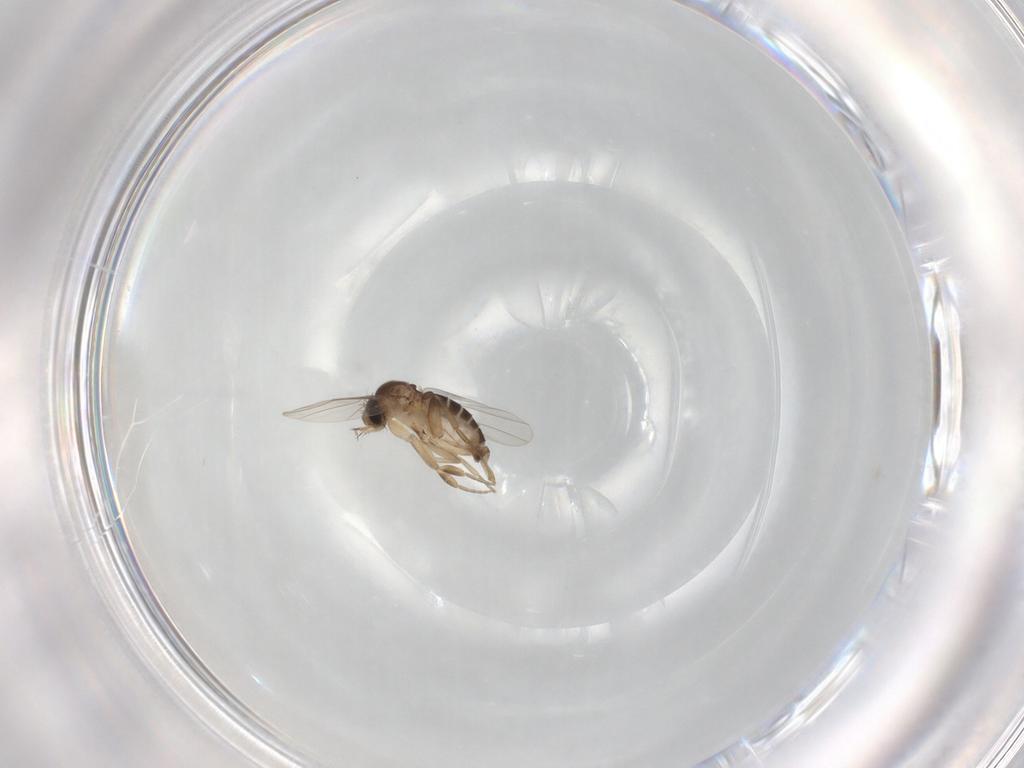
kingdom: Animalia
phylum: Arthropoda
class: Insecta
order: Diptera
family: Phoridae
